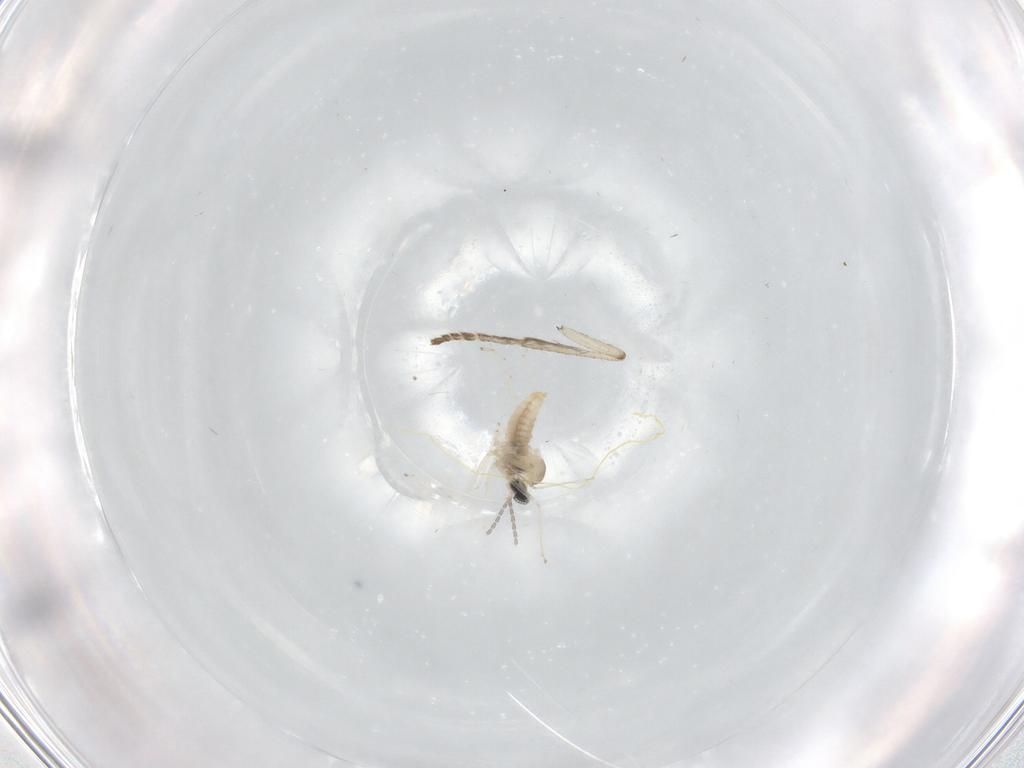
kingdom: Animalia
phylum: Arthropoda
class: Insecta
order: Diptera
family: Psychodidae
